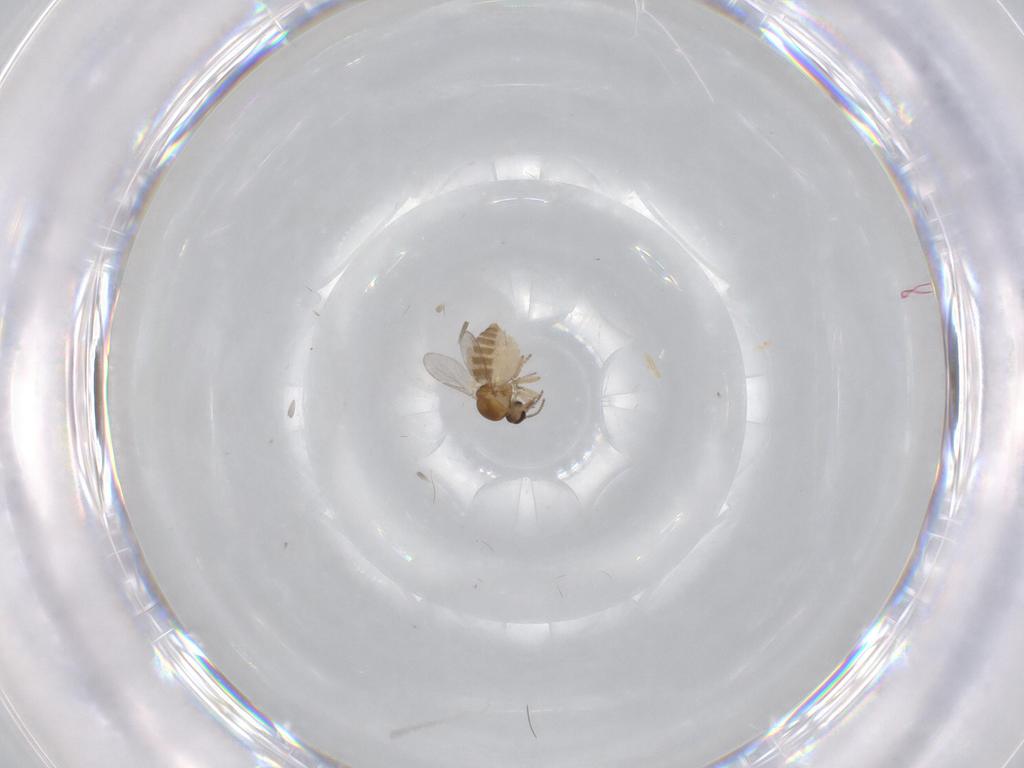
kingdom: Animalia
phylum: Arthropoda
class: Insecta
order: Diptera
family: Ceratopogonidae
